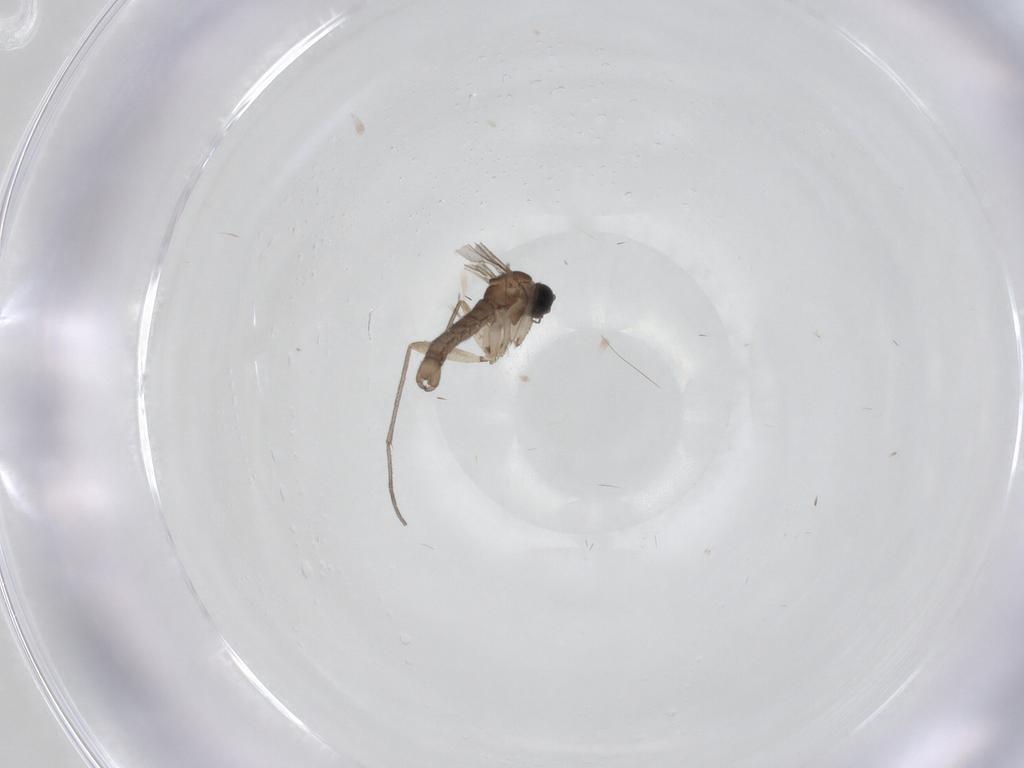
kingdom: Animalia
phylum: Arthropoda
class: Insecta
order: Diptera
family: Sciaridae
